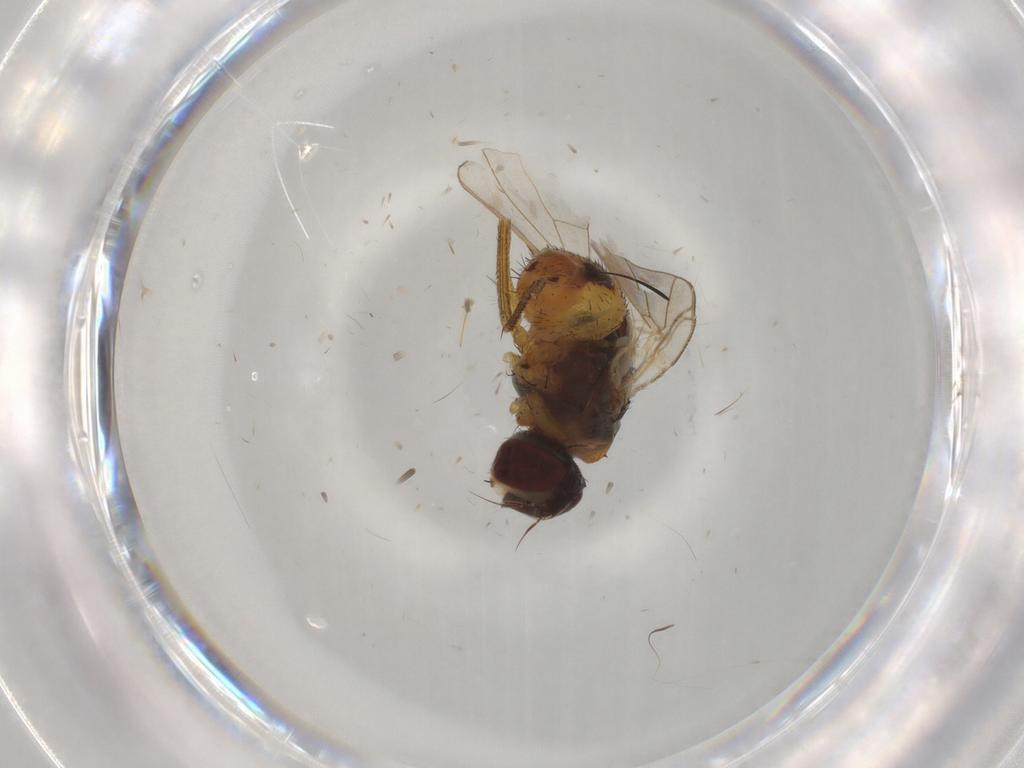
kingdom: Animalia
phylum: Arthropoda
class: Insecta
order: Diptera
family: Muscidae
